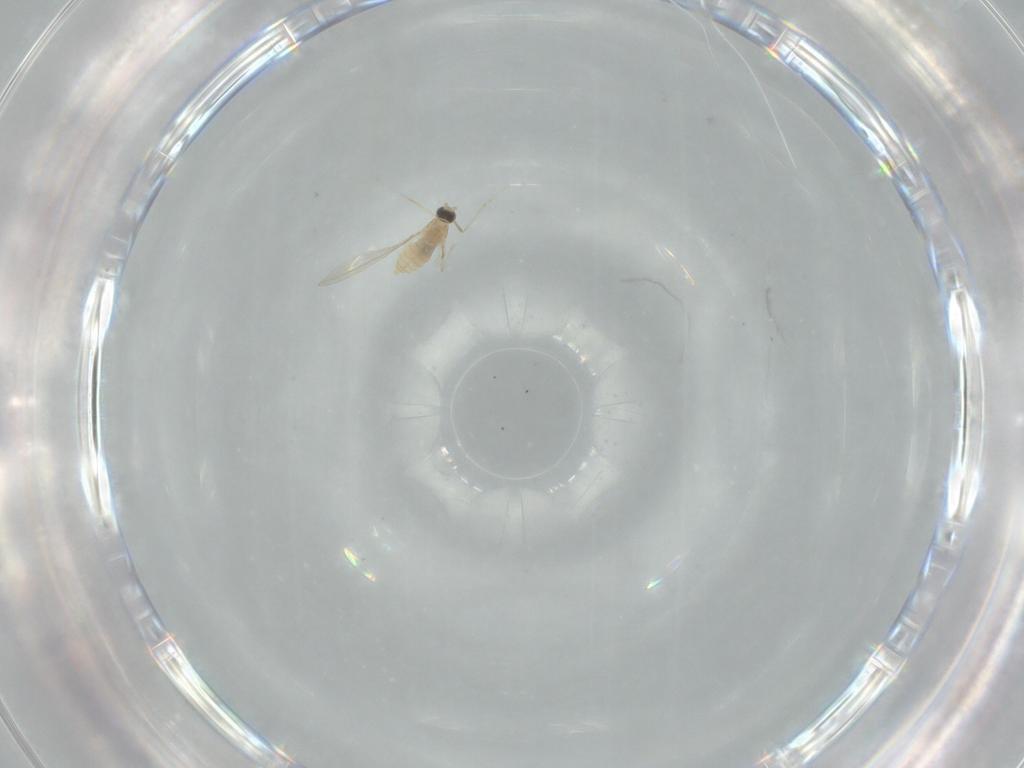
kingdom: Animalia
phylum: Arthropoda
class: Insecta
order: Diptera
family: Cecidomyiidae
